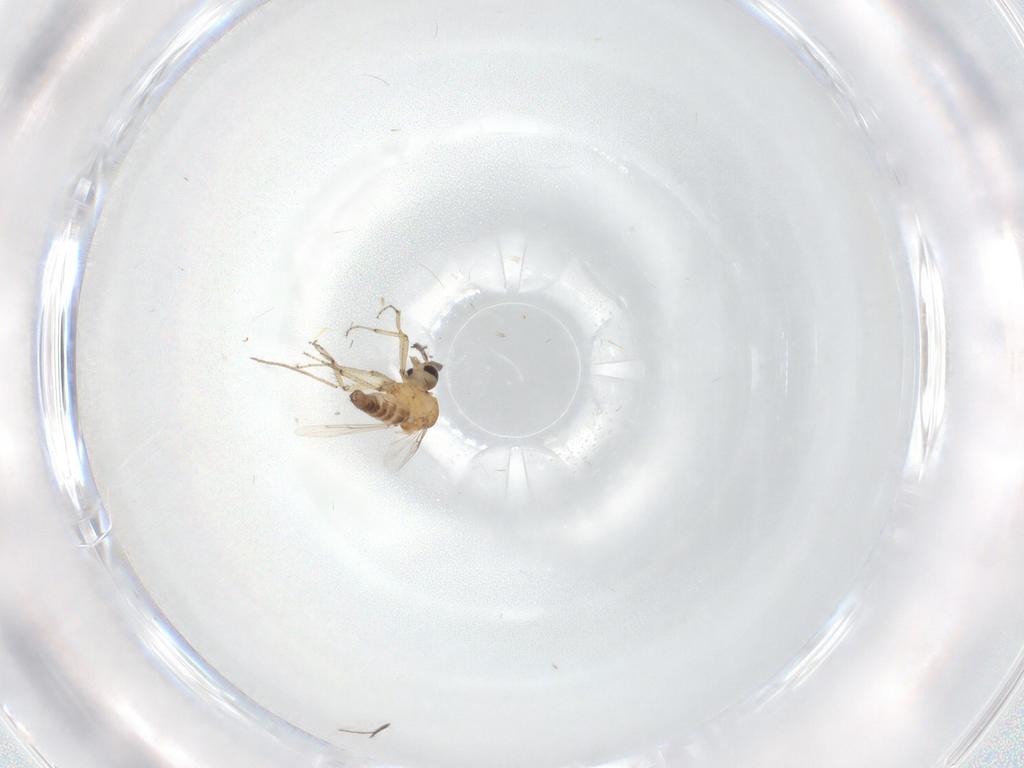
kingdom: Animalia
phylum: Arthropoda
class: Insecta
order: Diptera
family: Ceratopogonidae
